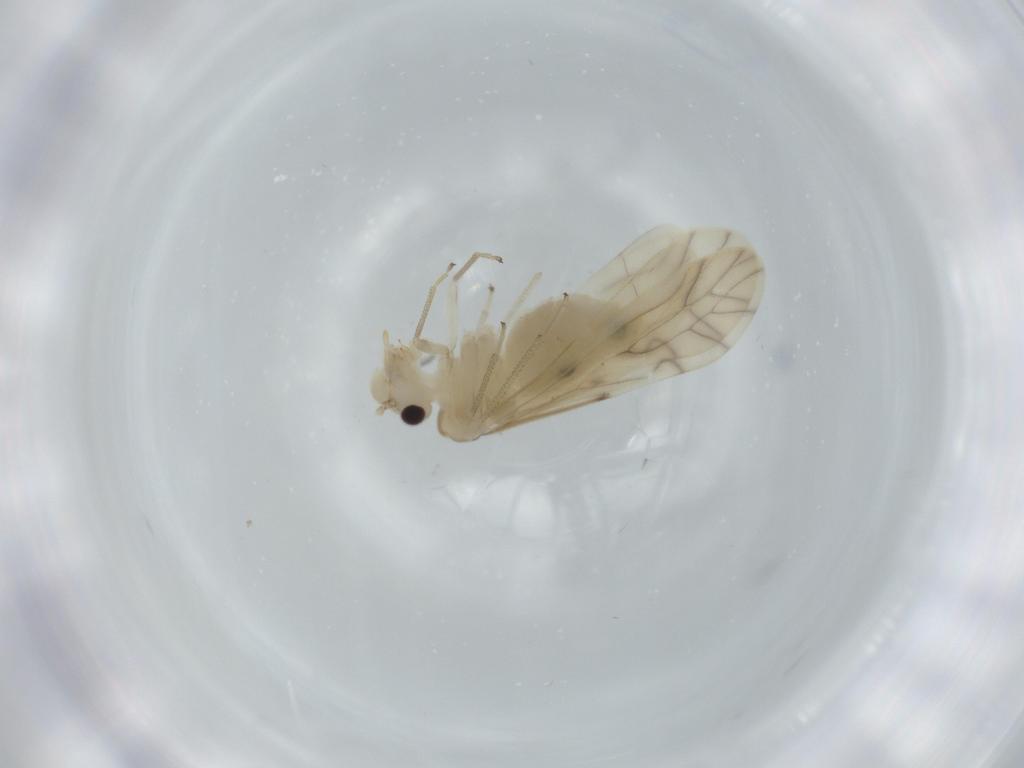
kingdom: Animalia
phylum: Arthropoda
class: Insecta
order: Psocodea
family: Caeciliusidae
